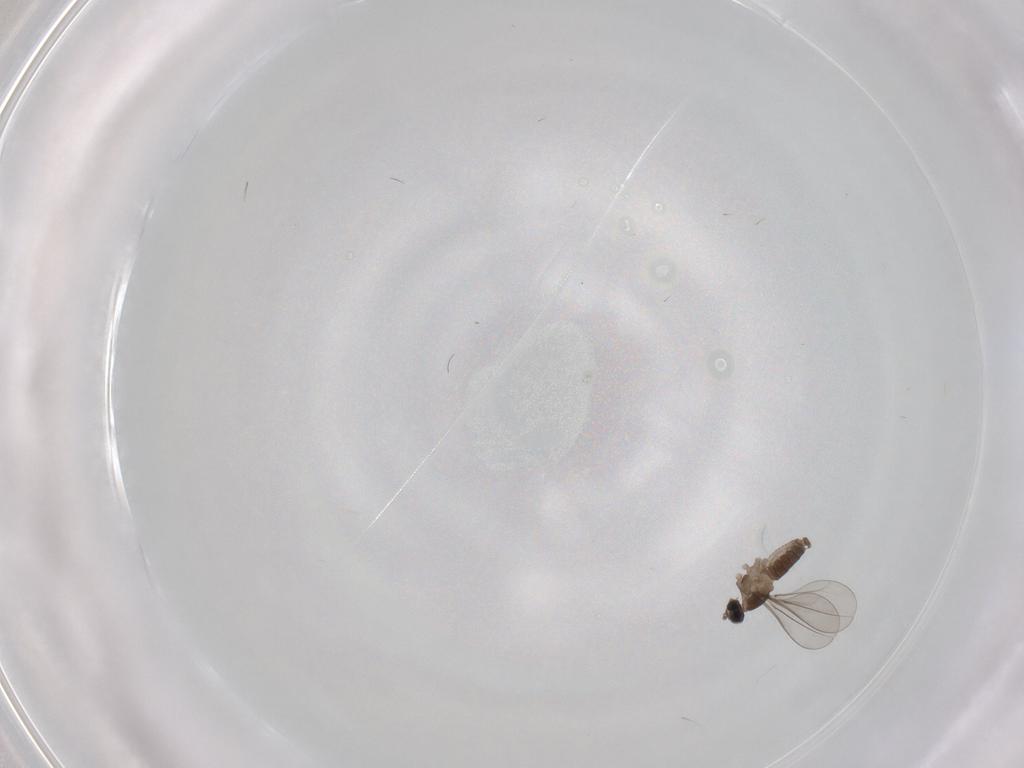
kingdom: Animalia
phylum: Arthropoda
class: Insecta
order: Diptera
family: Cecidomyiidae
